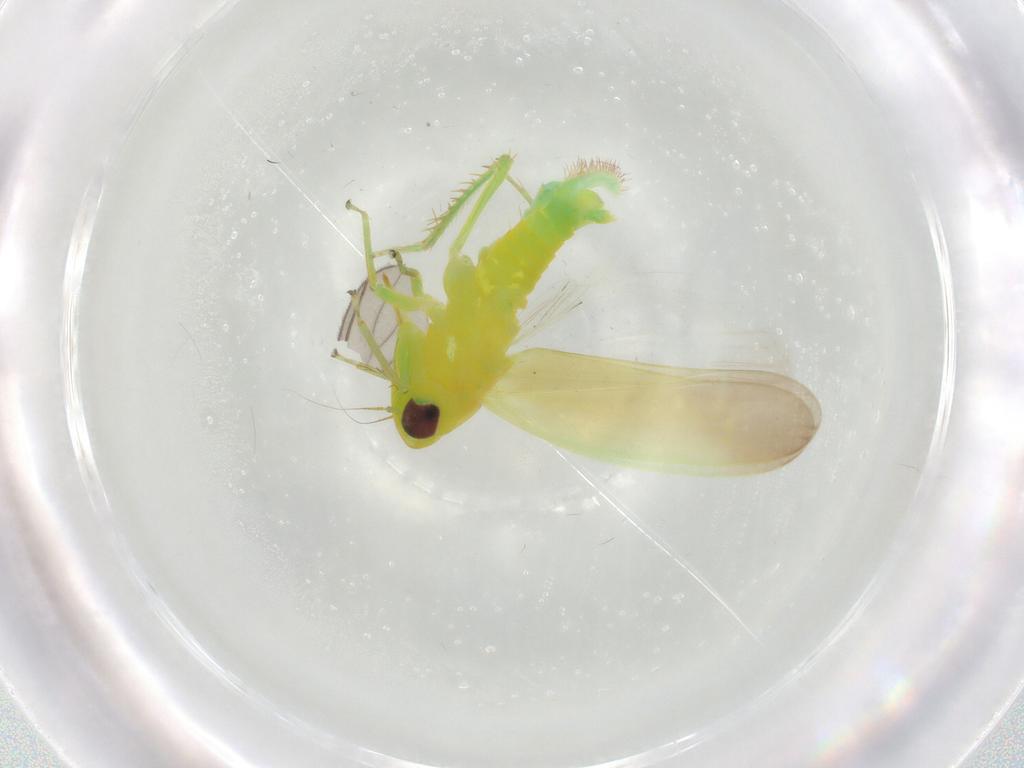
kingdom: Animalia
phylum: Arthropoda
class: Insecta
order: Hemiptera
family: Cicadellidae
